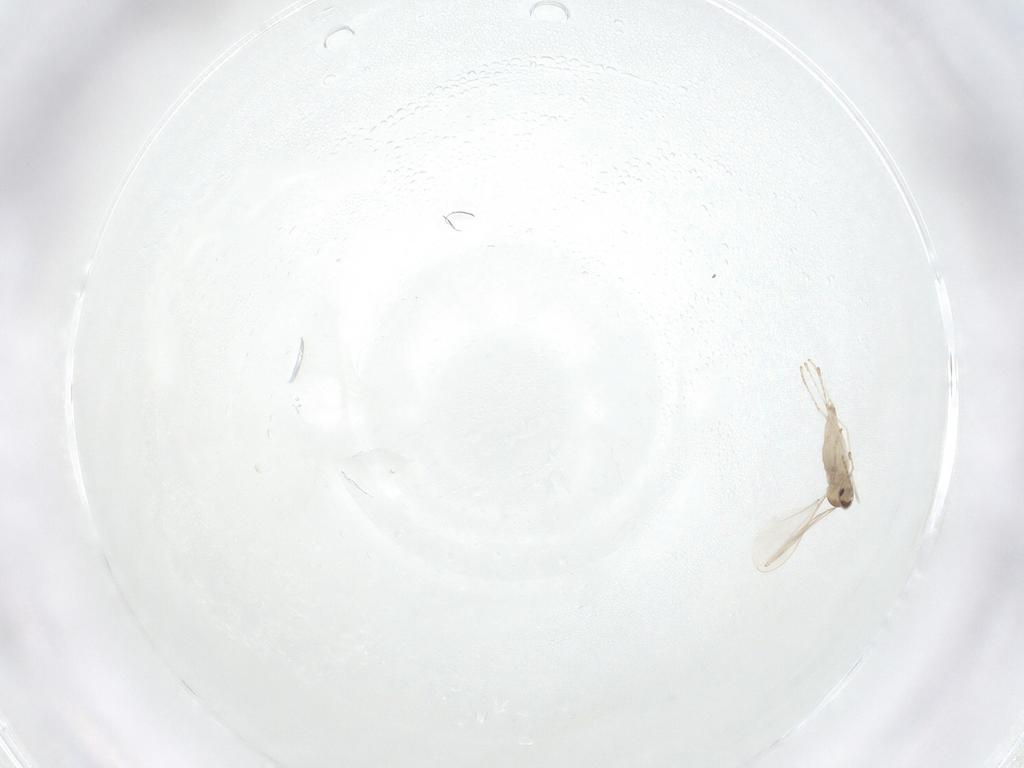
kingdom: Animalia
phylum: Arthropoda
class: Insecta
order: Diptera
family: Cecidomyiidae
